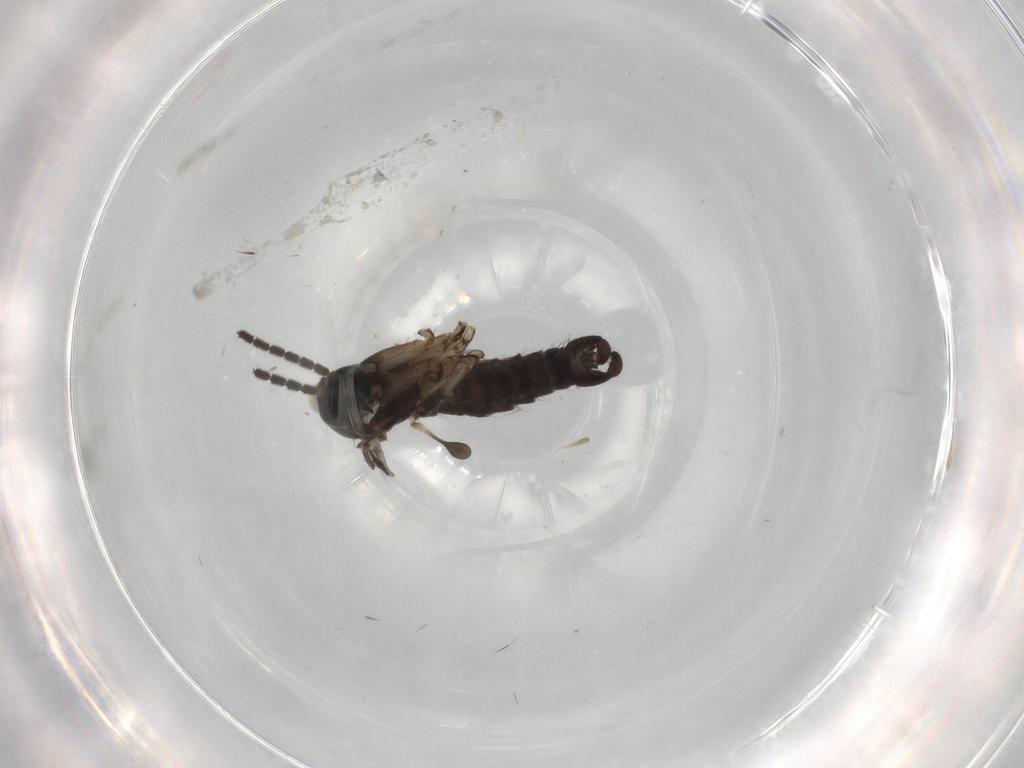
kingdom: Animalia
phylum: Arthropoda
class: Insecta
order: Diptera
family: Sciaridae
